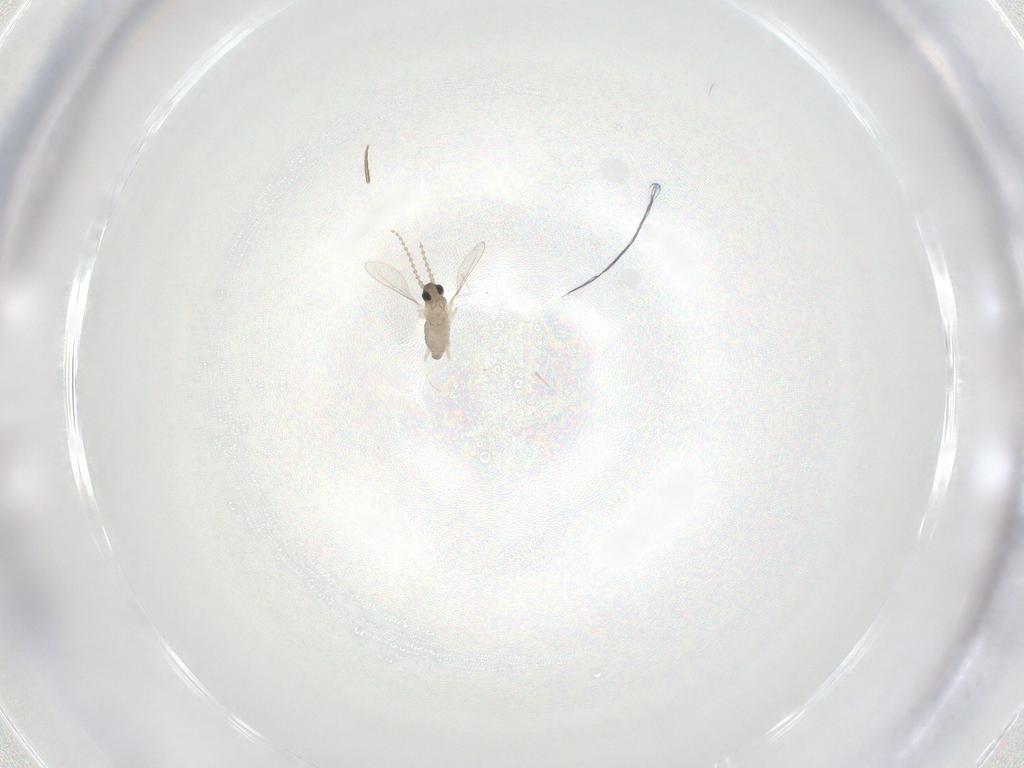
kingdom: Animalia
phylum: Arthropoda
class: Insecta
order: Diptera
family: Cecidomyiidae
